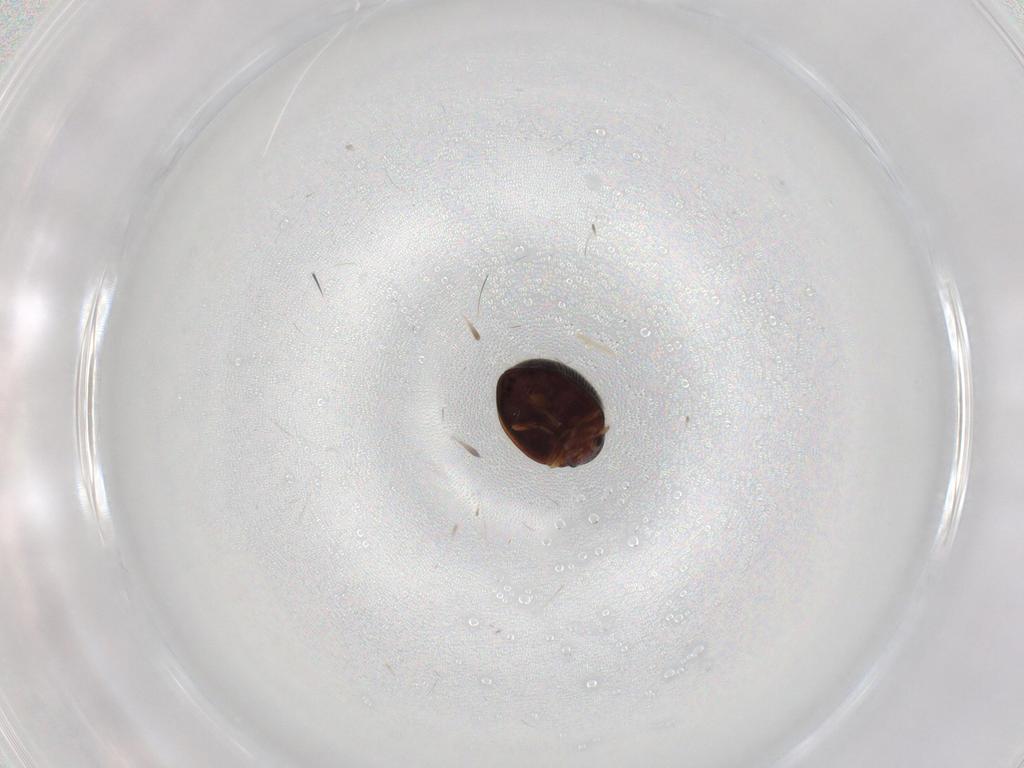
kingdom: Animalia
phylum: Arthropoda
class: Insecta
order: Coleoptera
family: Coccinellidae
